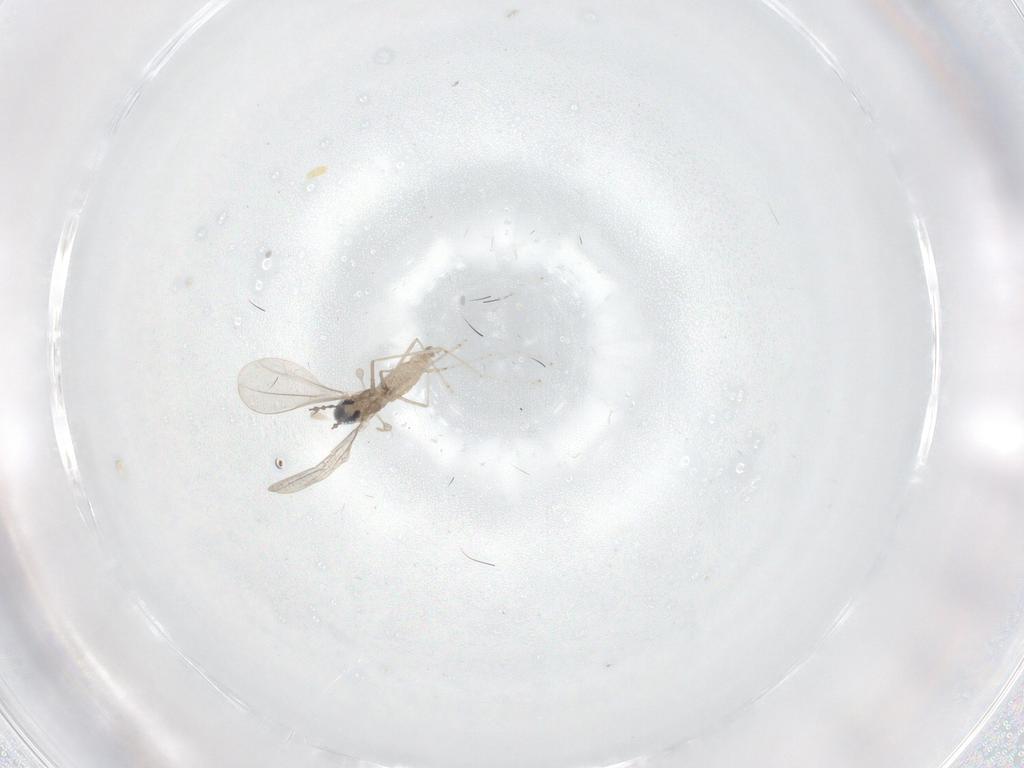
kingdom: Animalia
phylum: Arthropoda
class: Insecta
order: Diptera
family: Cecidomyiidae
